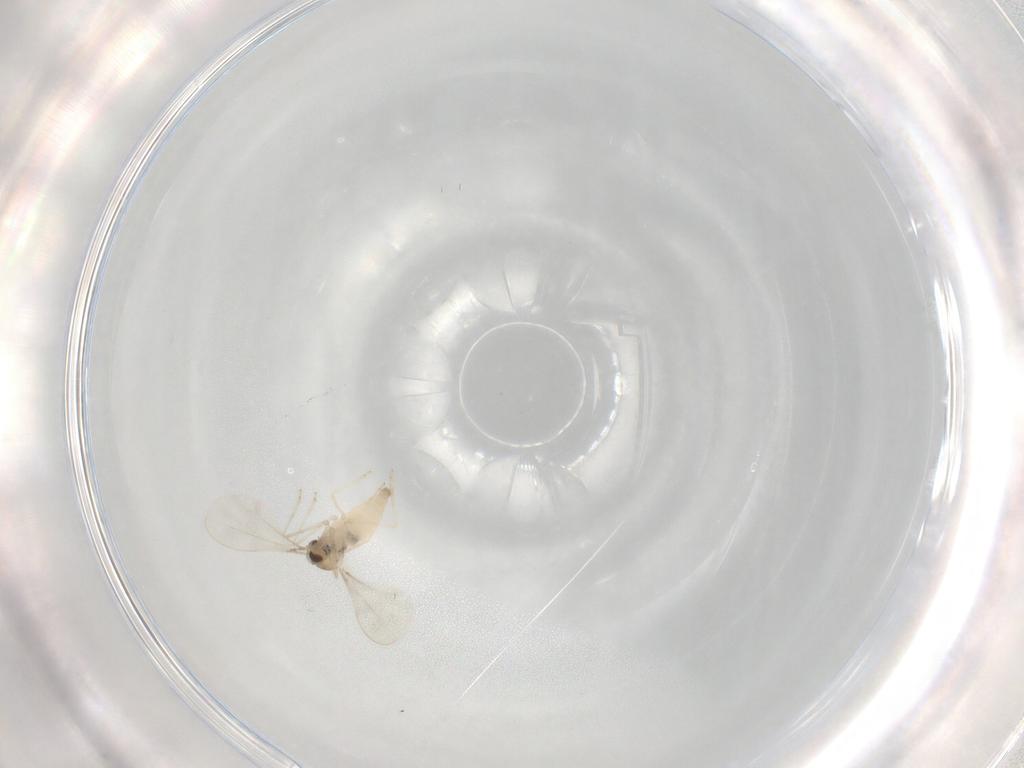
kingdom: Animalia
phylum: Arthropoda
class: Insecta
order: Diptera
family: Cecidomyiidae
